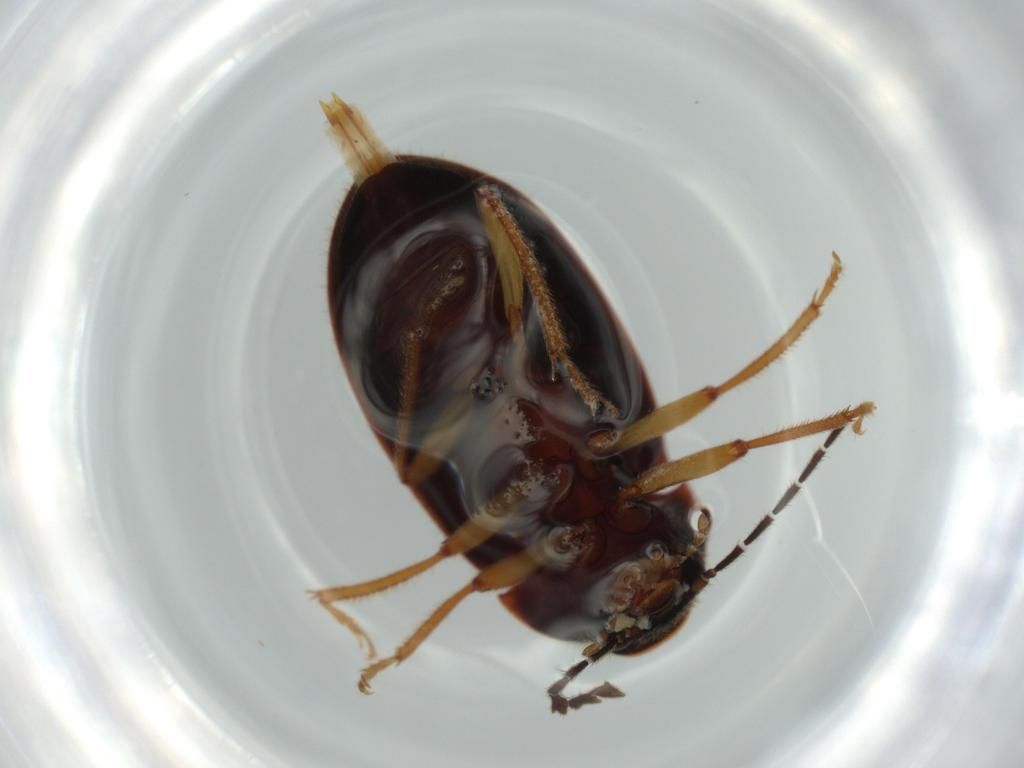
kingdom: Animalia
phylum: Arthropoda
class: Insecta
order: Coleoptera
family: Ptilodactylidae
